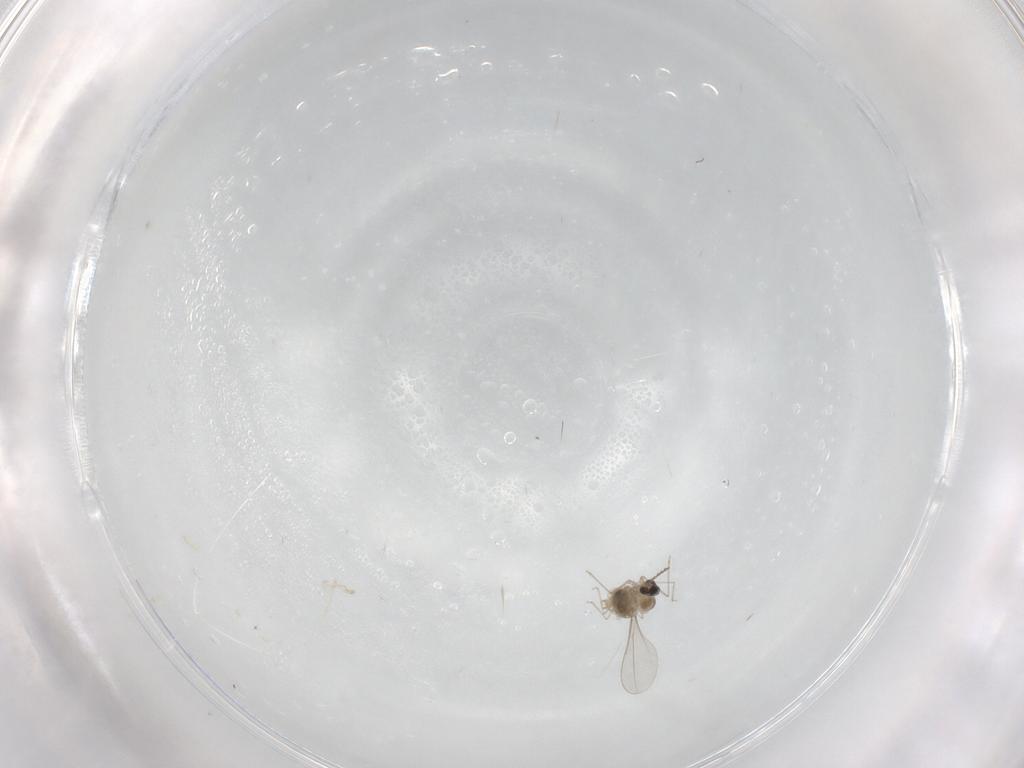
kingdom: Animalia
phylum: Arthropoda
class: Insecta
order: Diptera
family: Cecidomyiidae
